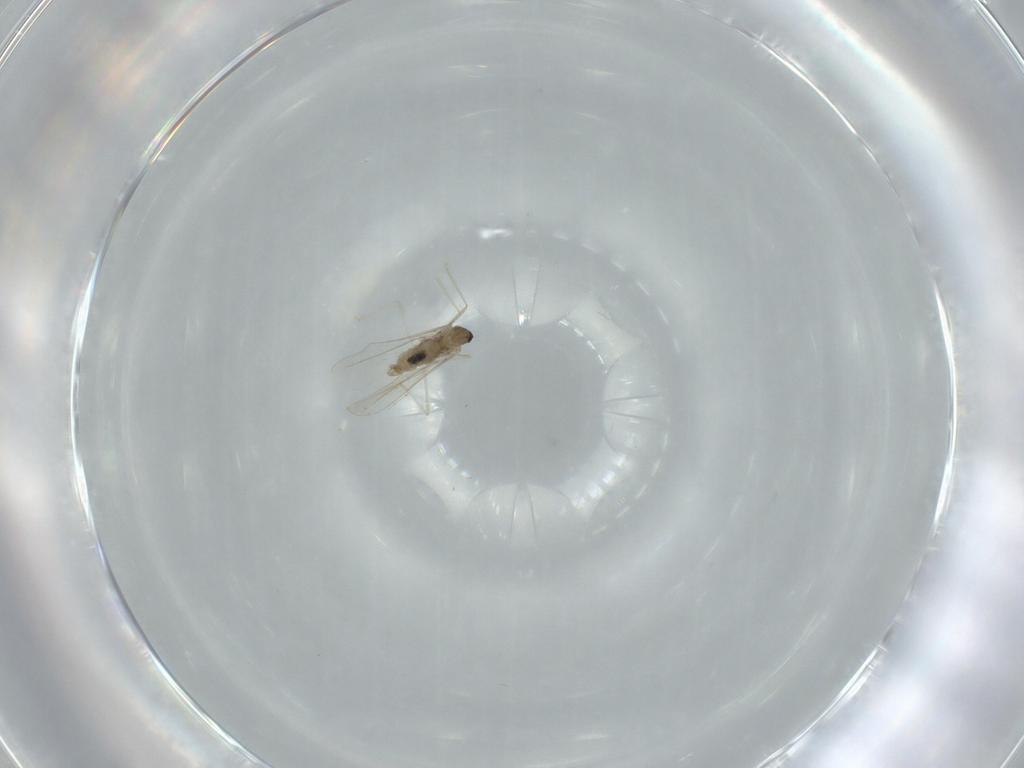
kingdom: Animalia
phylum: Arthropoda
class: Insecta
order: Diptera
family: Cecidomyiidae
